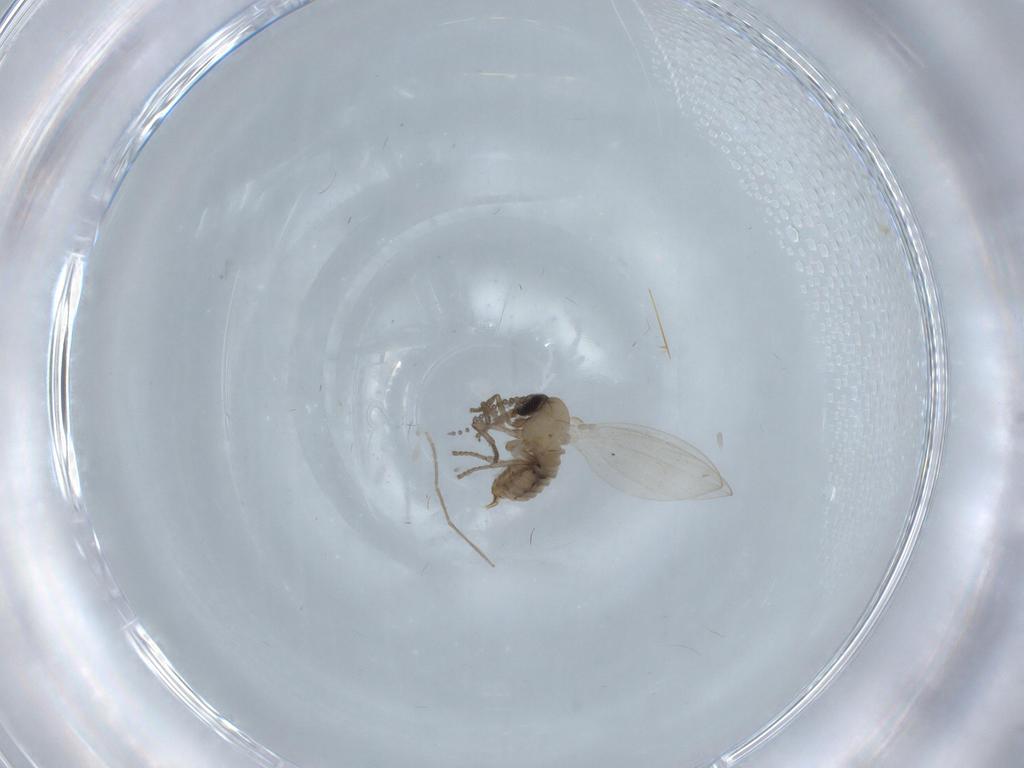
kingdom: Animalia
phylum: Arthropoda
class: Insecta
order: Diptera
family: Psychodidae
